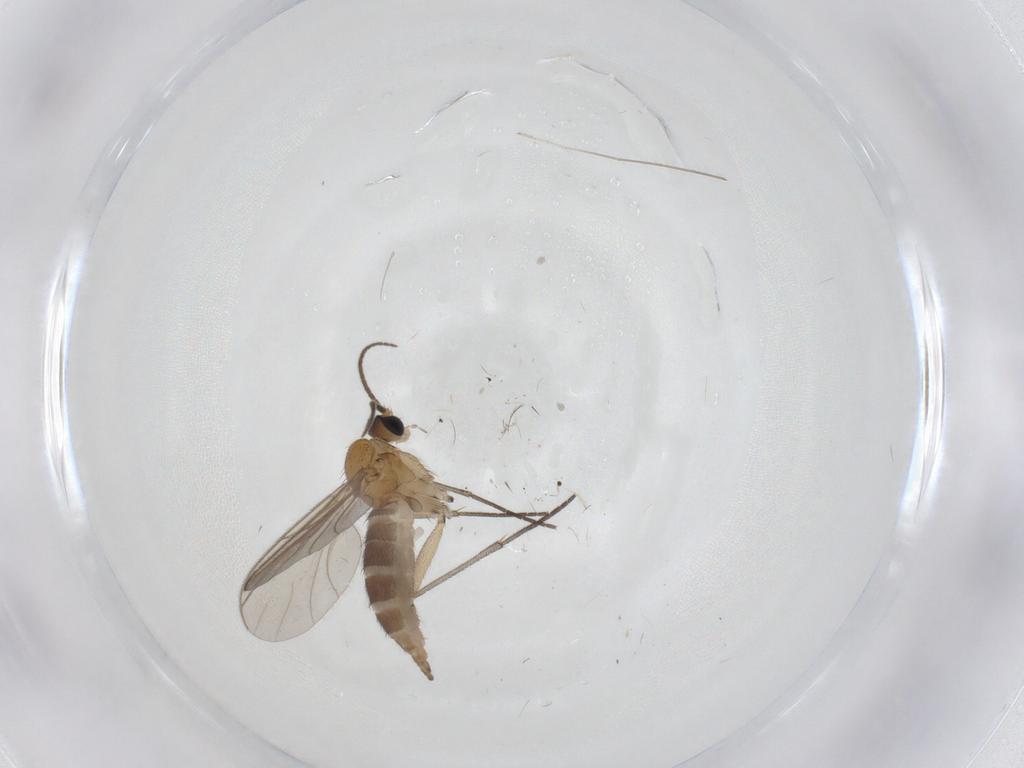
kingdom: Animalia
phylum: Arthropoda
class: Insecta
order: Diptera
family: Sciaridae
